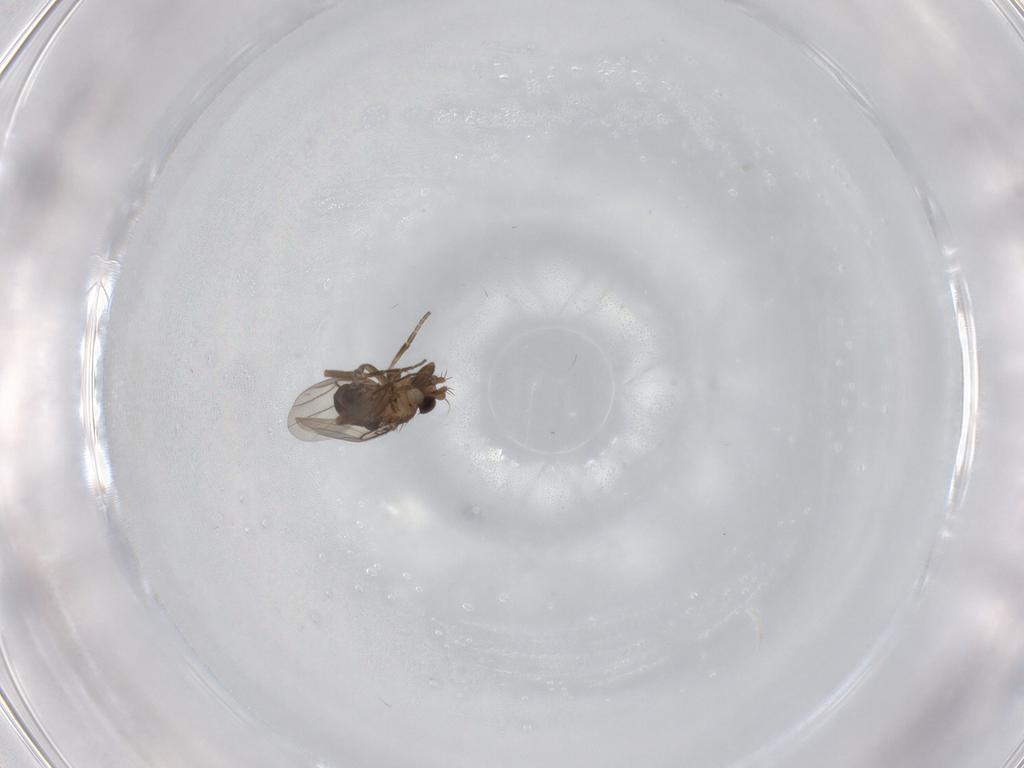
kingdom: Animalia
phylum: Arthropoda
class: Insecta
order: Diptera
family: Phoridae
